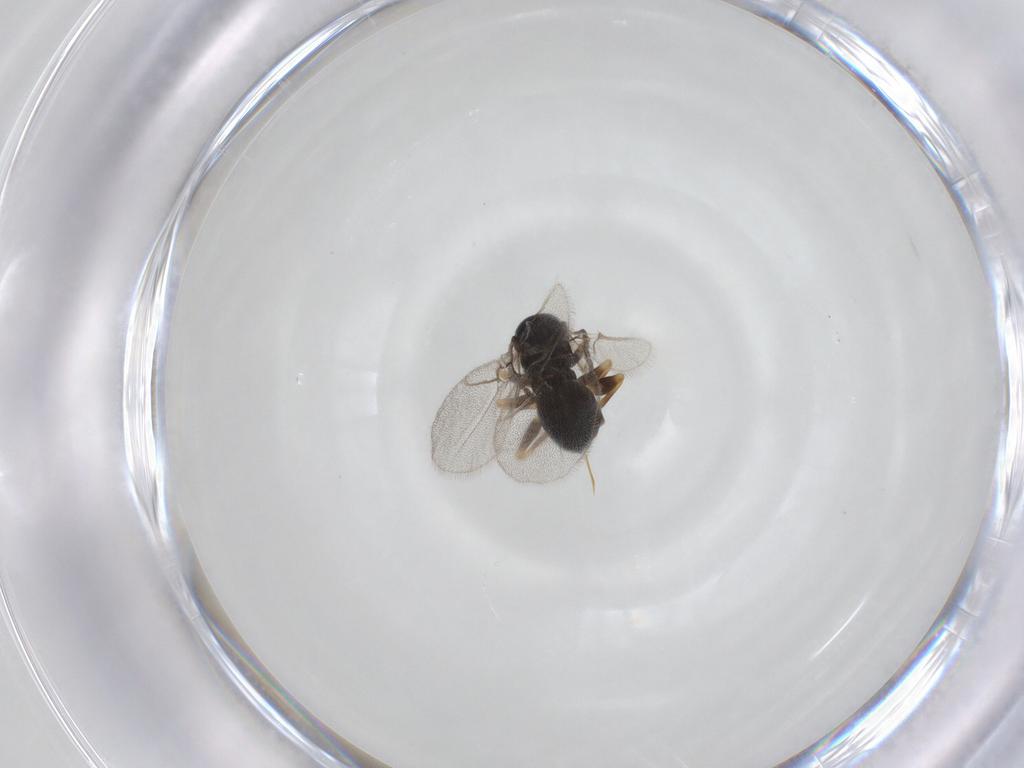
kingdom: Animalia
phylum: Arthropoda
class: Insecta
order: Hymenoptera
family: Cynipidae
